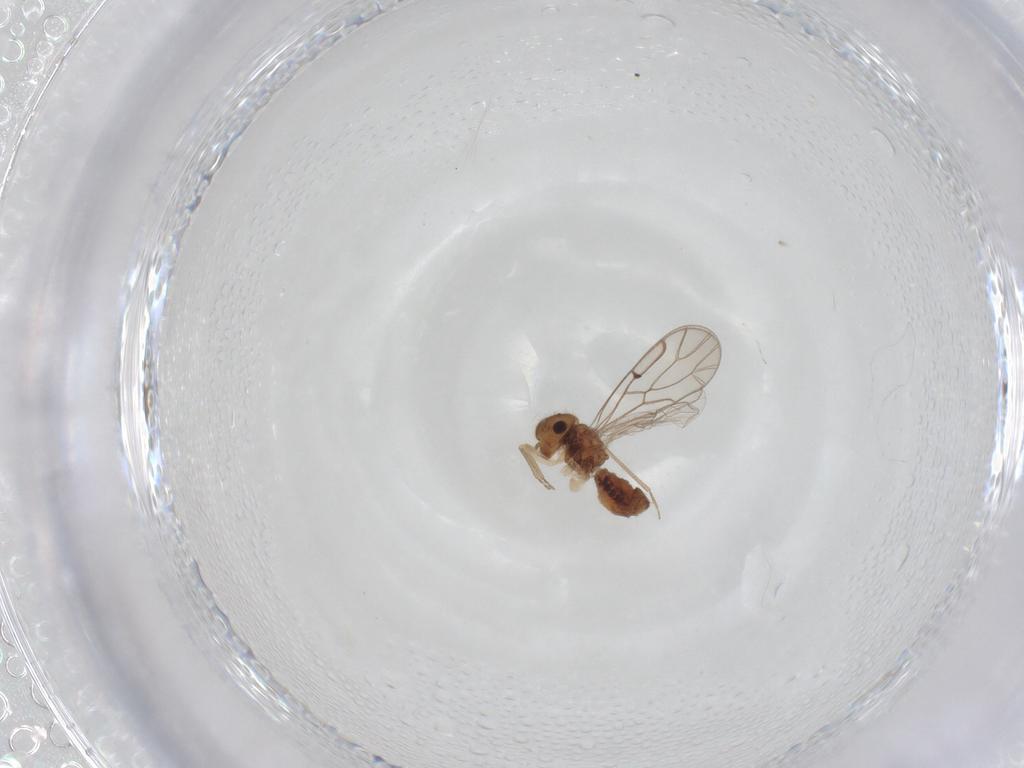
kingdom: Animalia
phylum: Arthropoda
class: Insecta
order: Psocodea
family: Ectopsocidae
